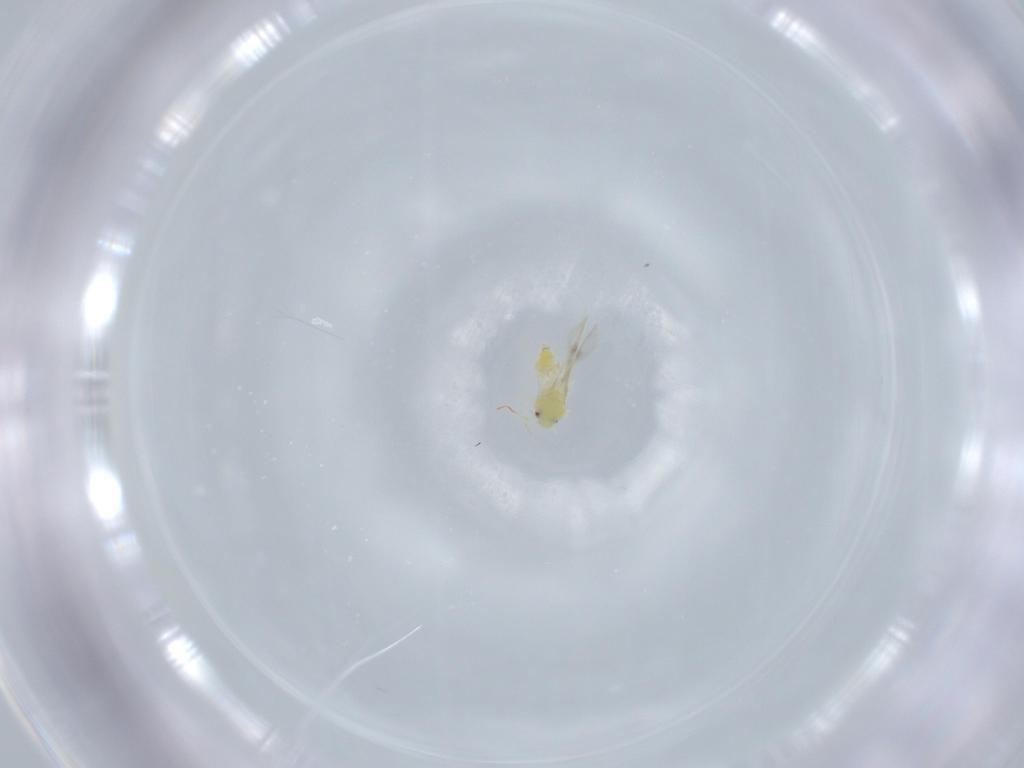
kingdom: Animalia
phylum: Arthropoda
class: Insecta
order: Hemiptera
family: Aleyrodidae
